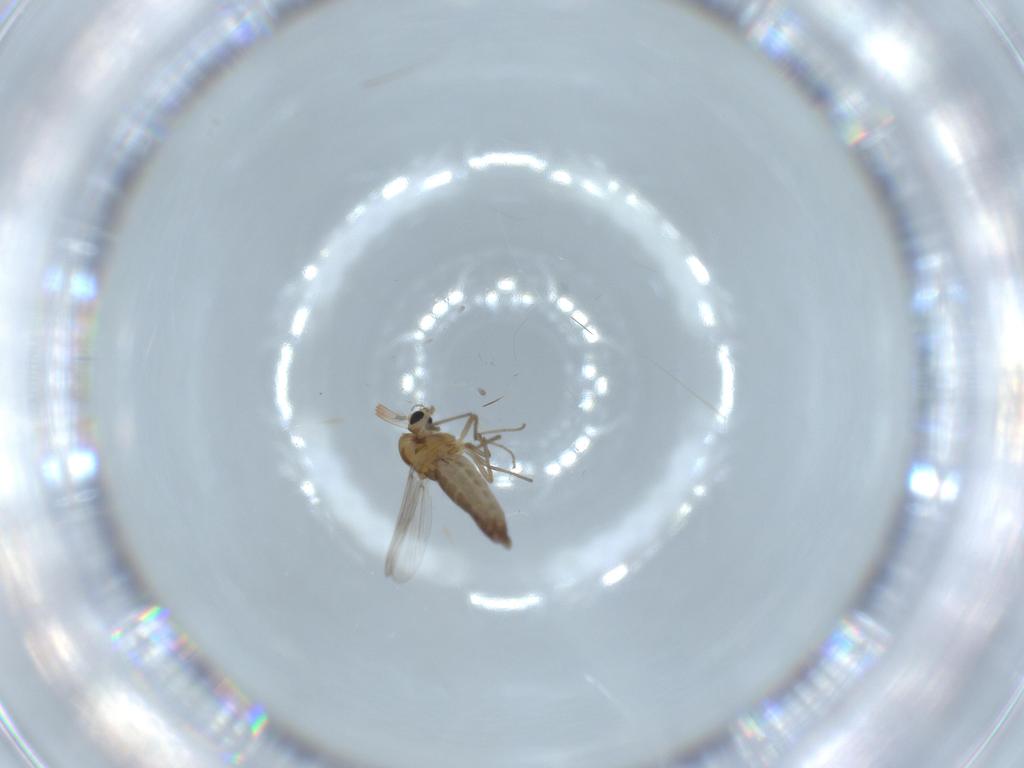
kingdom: Animalia
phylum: Arthropoda
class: Insecta
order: Diptera
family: Chironomidae
